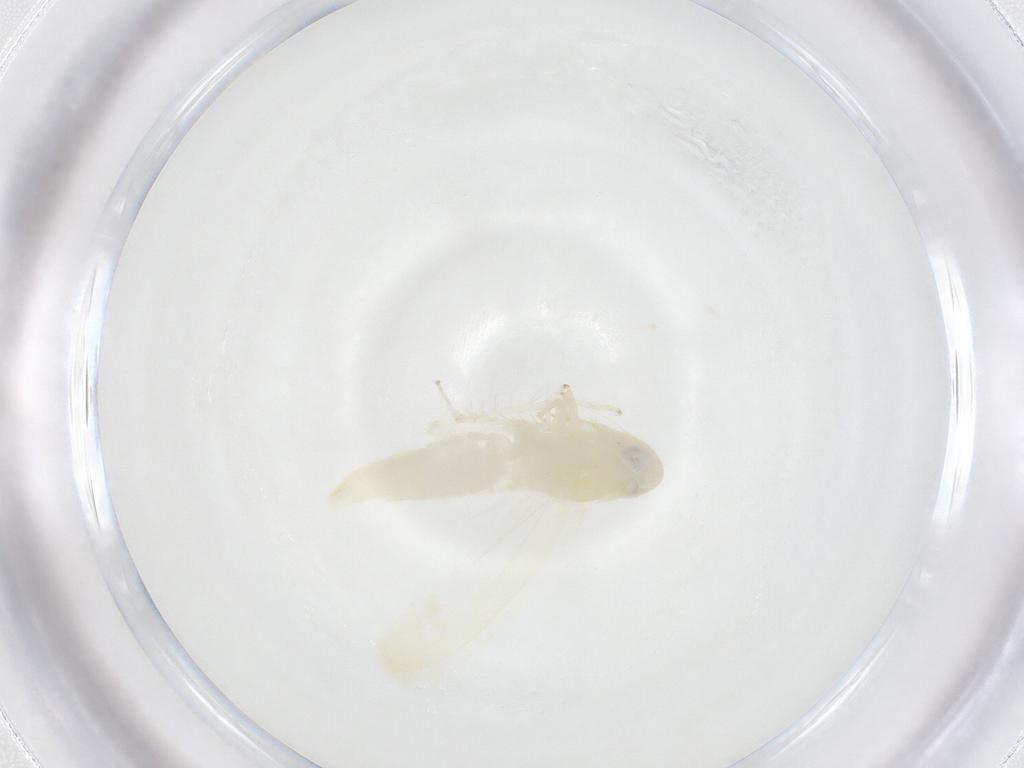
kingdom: Animalia
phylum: Arthropoda
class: Insecta
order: Hemiptera
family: Cicadellidae
